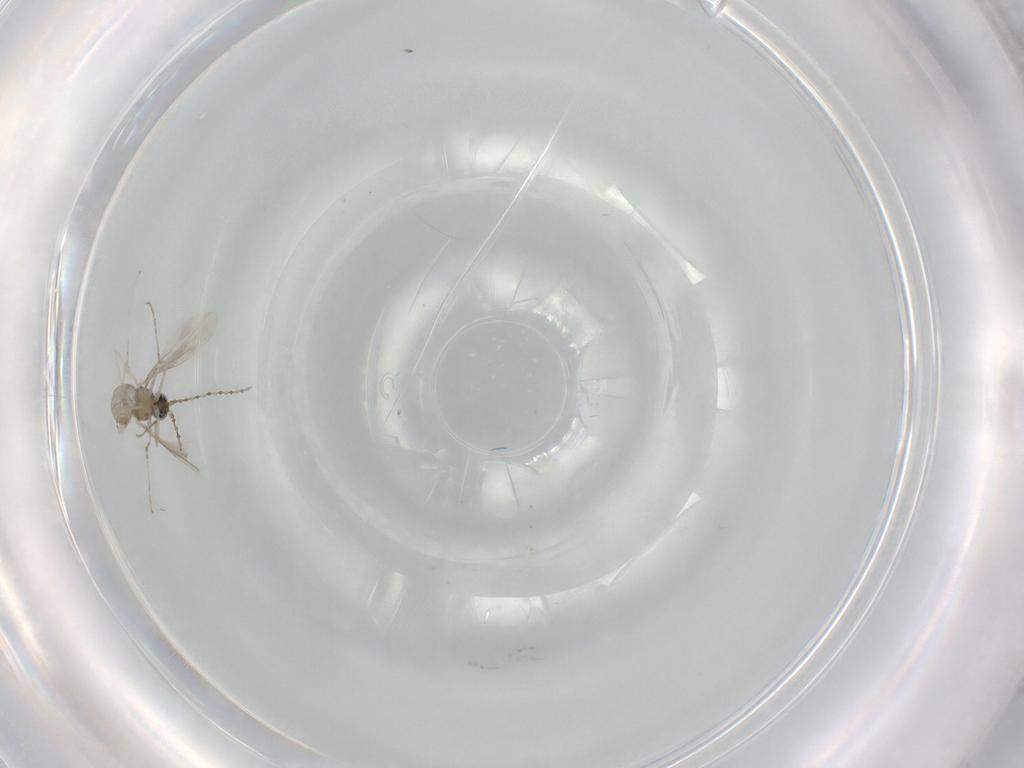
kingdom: Animalia
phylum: Arthropoda
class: Insecta
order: Diptera
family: Cecidomyiidae
